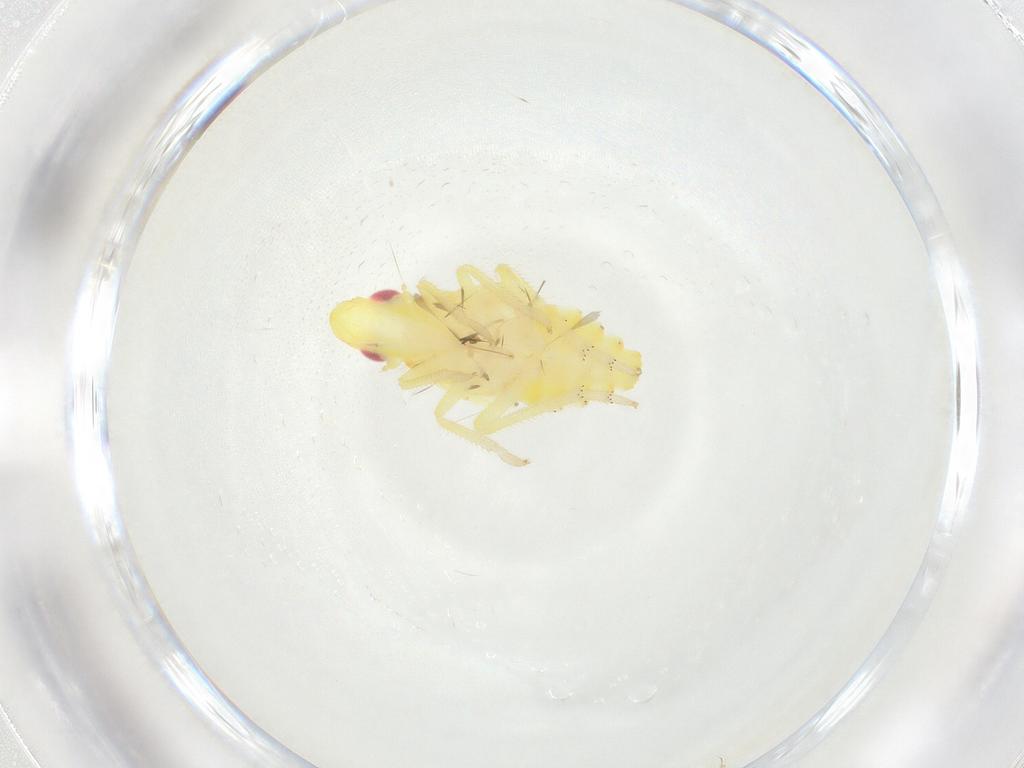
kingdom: Animalia
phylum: Arthropoda
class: Insecta
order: Hemiptera
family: Tropiduchidae
